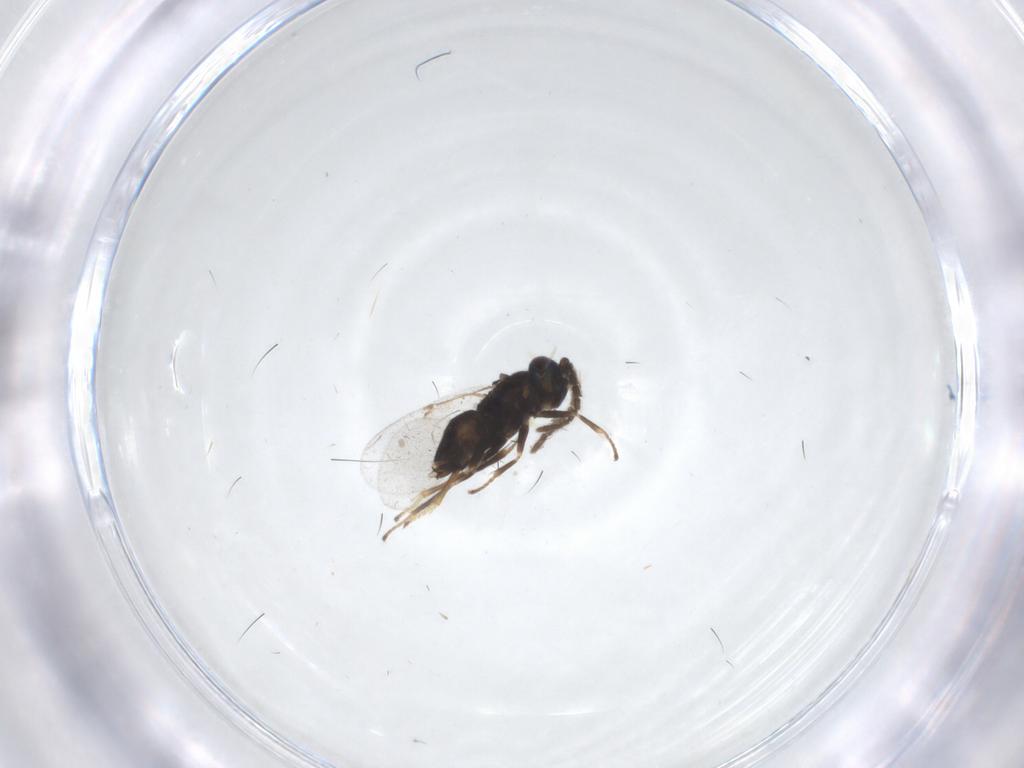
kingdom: Animalia
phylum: Arthropoda
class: Insecta
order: Hymenoptera
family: Encyrtidae
